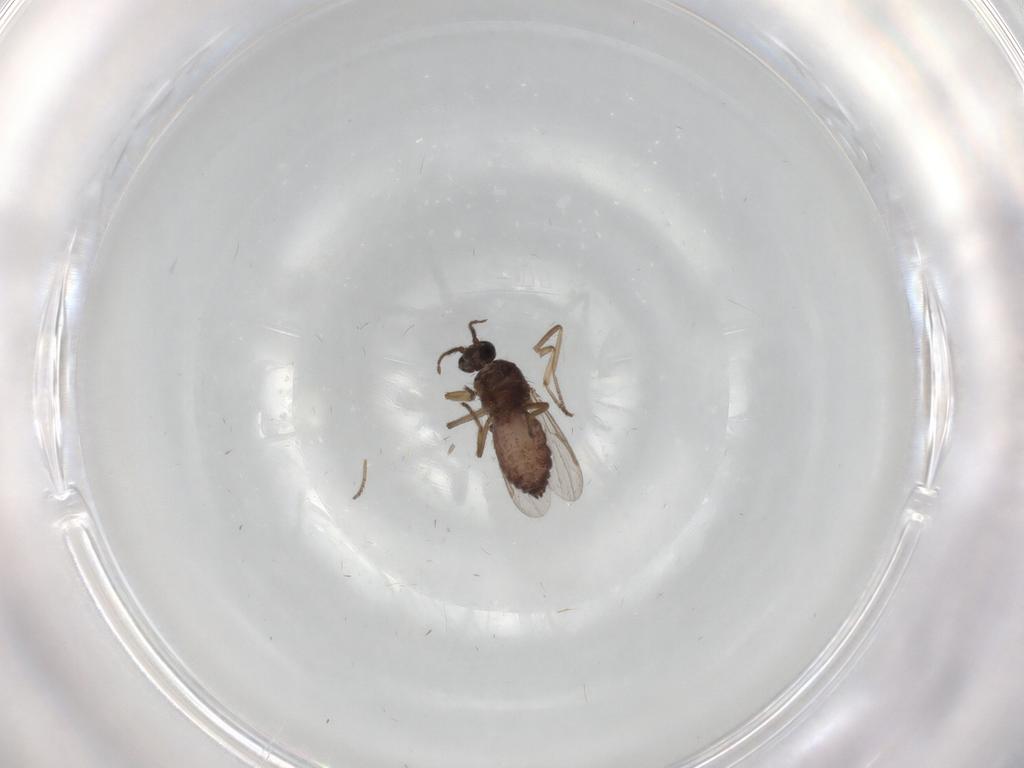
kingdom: Animalia
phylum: Arthropoda
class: Insecta
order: Diptera
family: Ceratopogonidae
